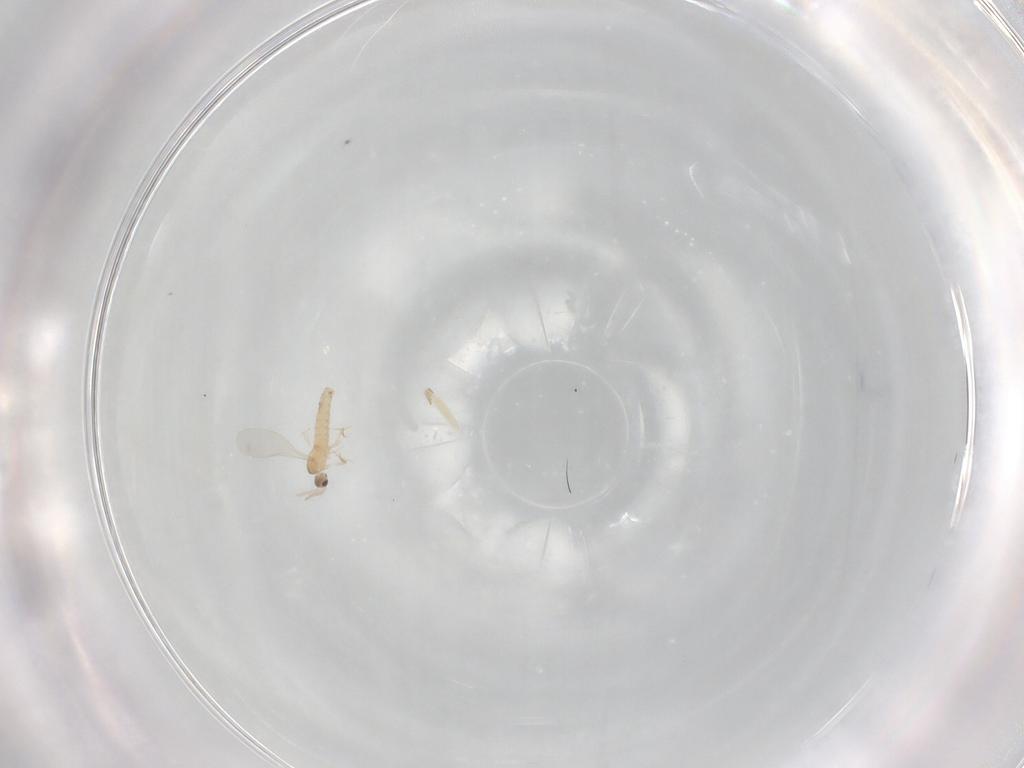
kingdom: Animalia
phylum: Arthropoda
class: Insecta
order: Diptera
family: Cecidomyiidae
